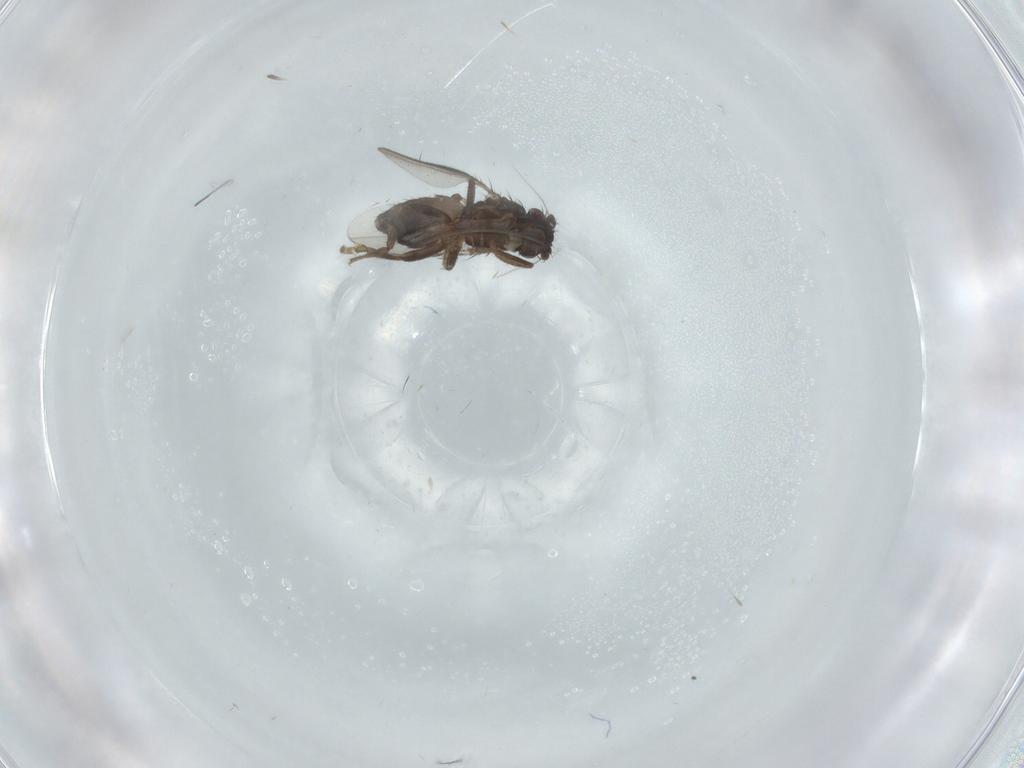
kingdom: Animalia
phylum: Arthropoda
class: Insecta
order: Diptera
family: Sphaeroceridae
